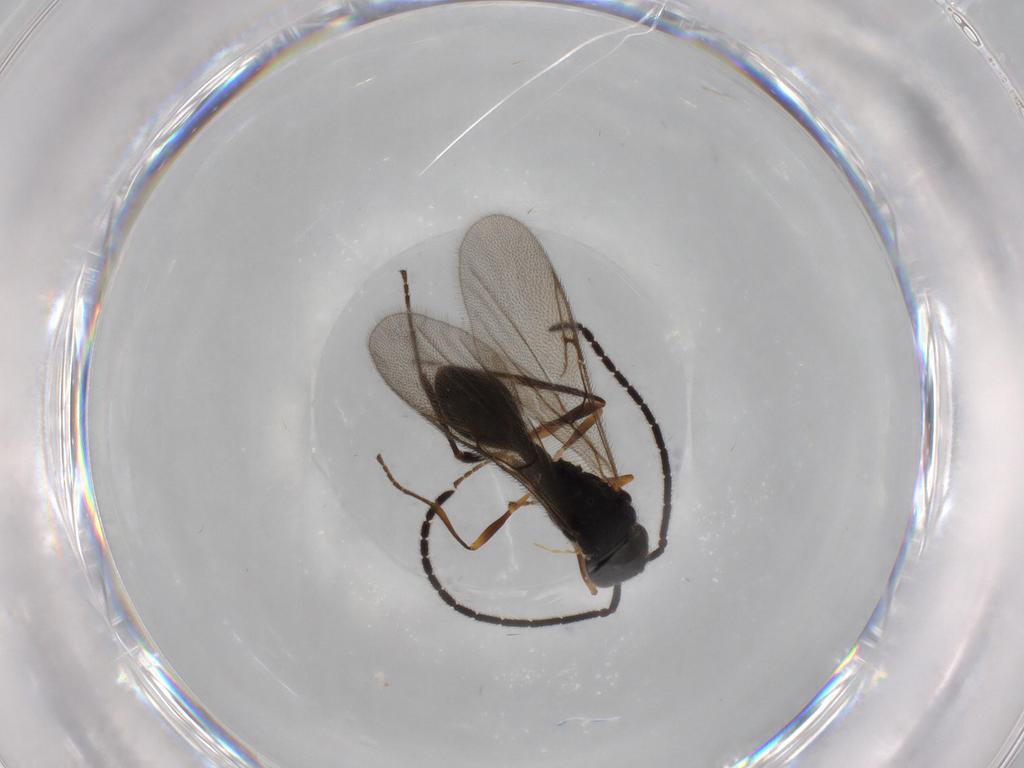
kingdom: Animalia
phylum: Arthropoda
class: Insecta
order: Hymenoptera
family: Diapriidae
